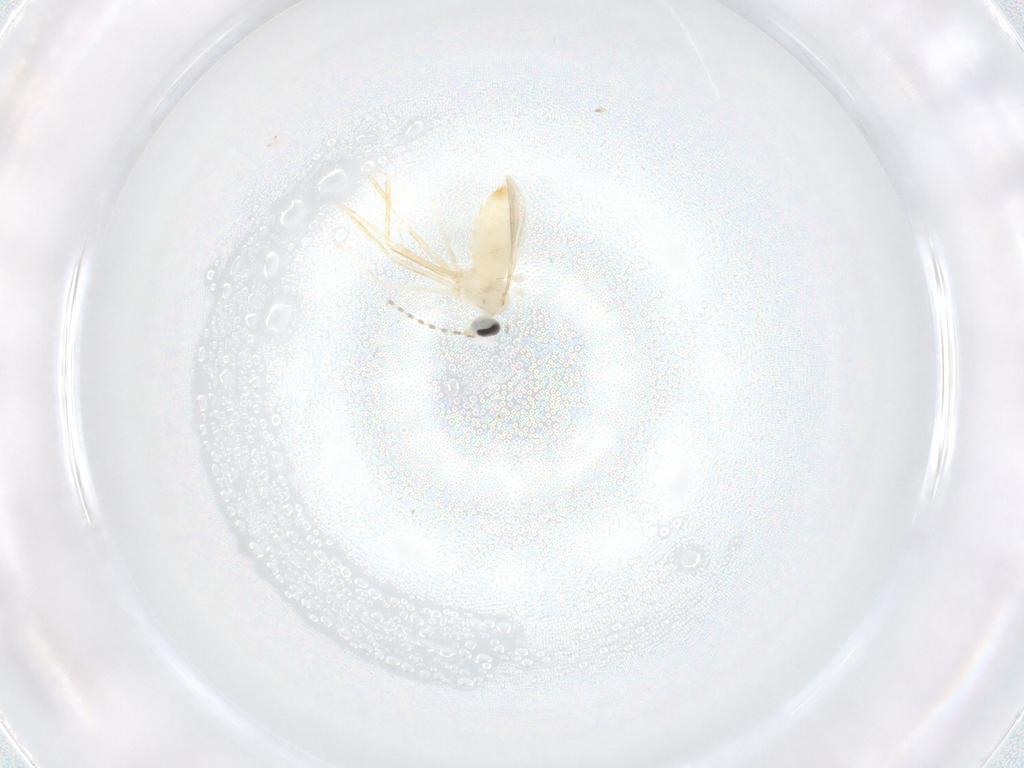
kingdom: Animalia
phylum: Arthropoda
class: Insecta
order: Diptera
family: Cecidomyiidae
